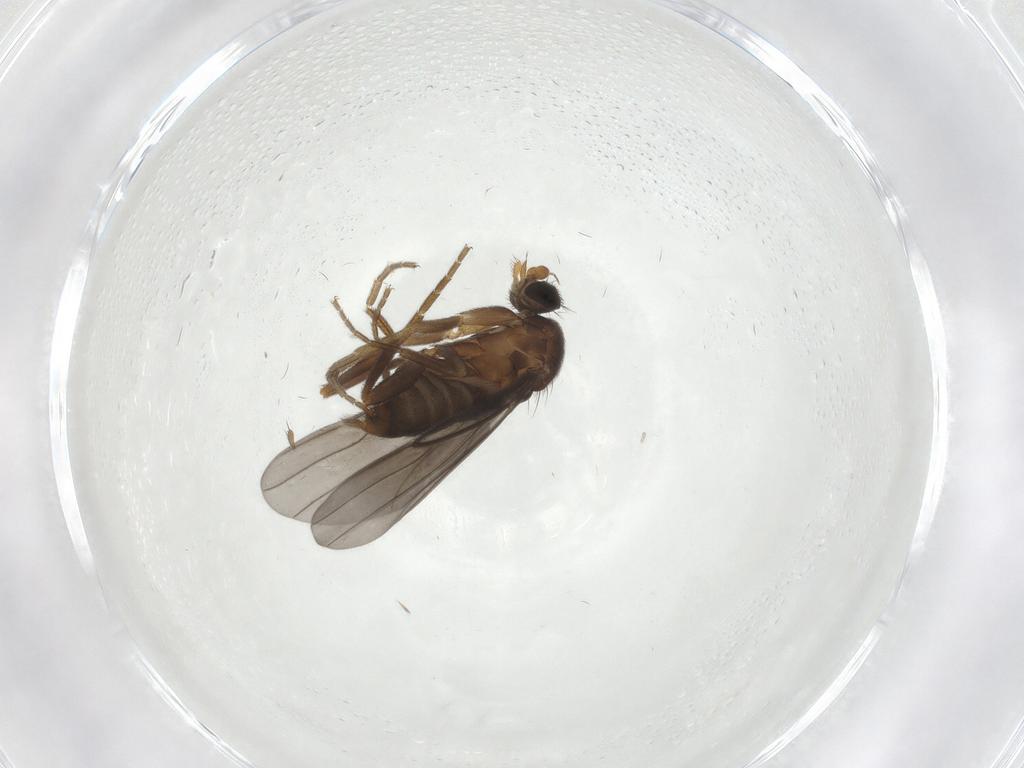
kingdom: Animalia
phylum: Arthropoda
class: Insecta
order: Diptera
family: Phoridae
